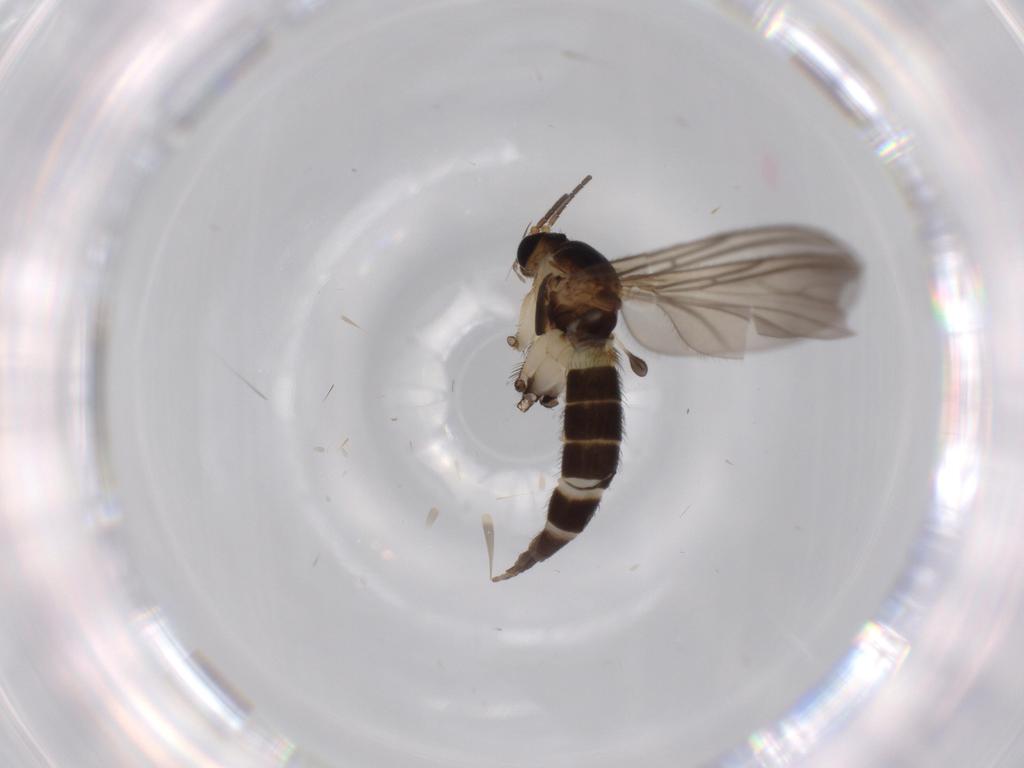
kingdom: Animalia
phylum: Arthropoda
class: Insecta
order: Diptera
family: Sciaridae
